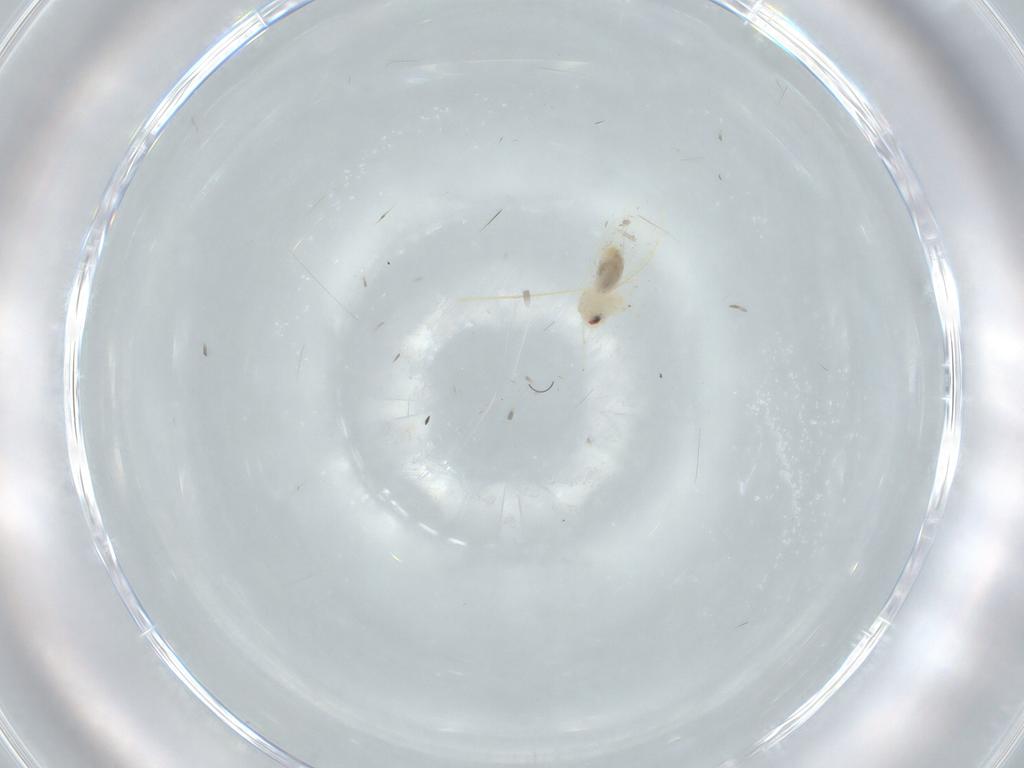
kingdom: Animalia
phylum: Arthropoda
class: Insecta
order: Hemiptera
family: Aleyrodidae
